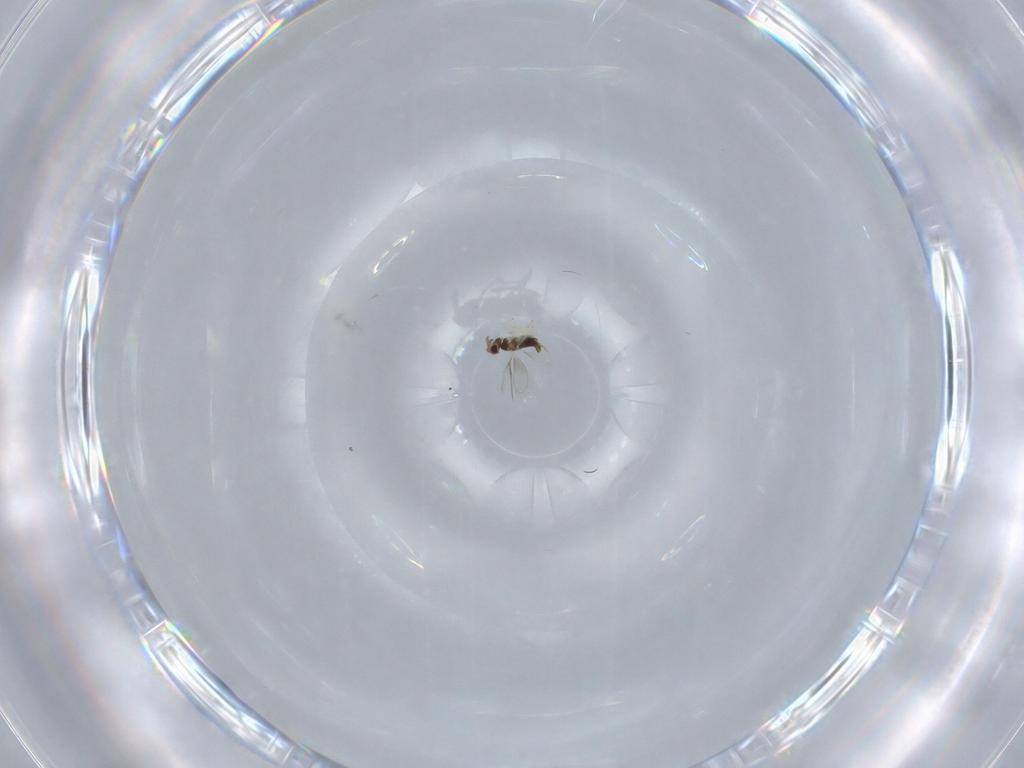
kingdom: Animalia
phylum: Arthropoda
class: Insecta
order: Hymenoptera
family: Aphelinidae
